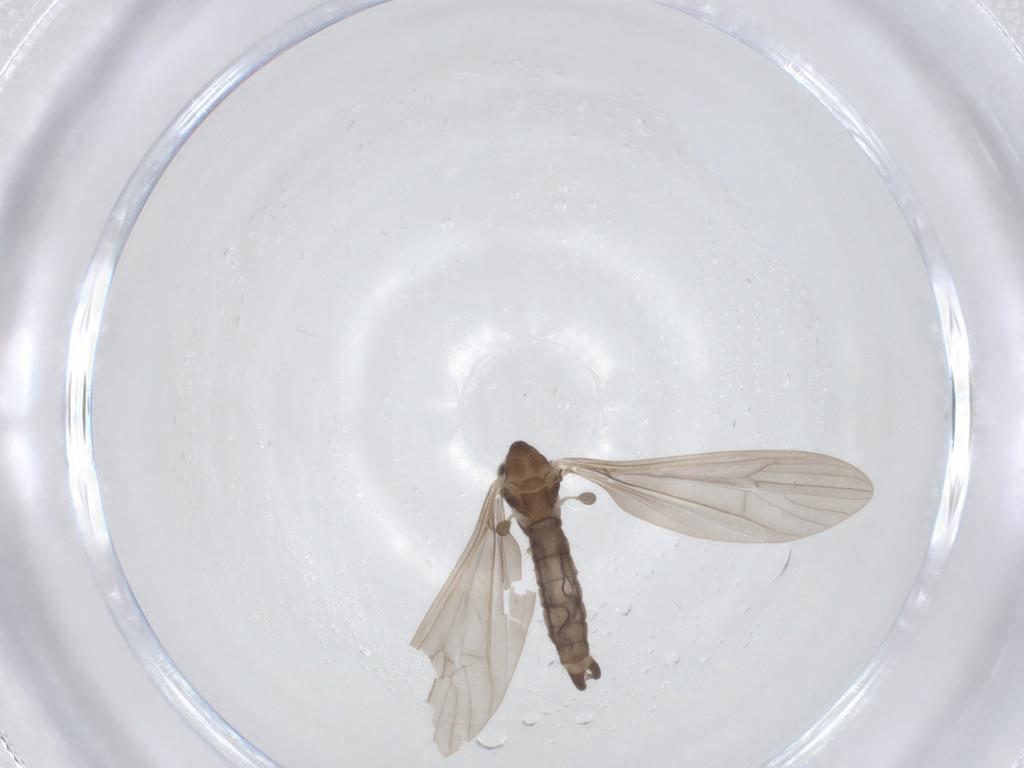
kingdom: Animalia
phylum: Arthropoda
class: Insecta
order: Diptera
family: Limoniidae
